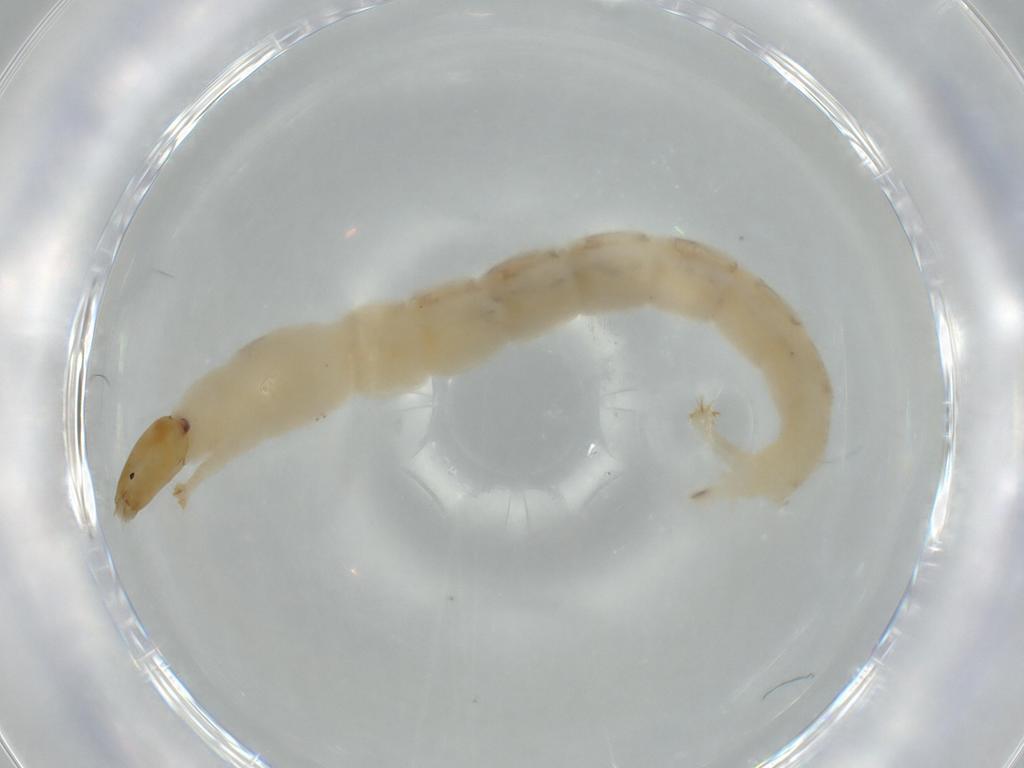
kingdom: Animalia
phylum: Arthropoda
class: Insecta
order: Diptera
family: Chironomidae
